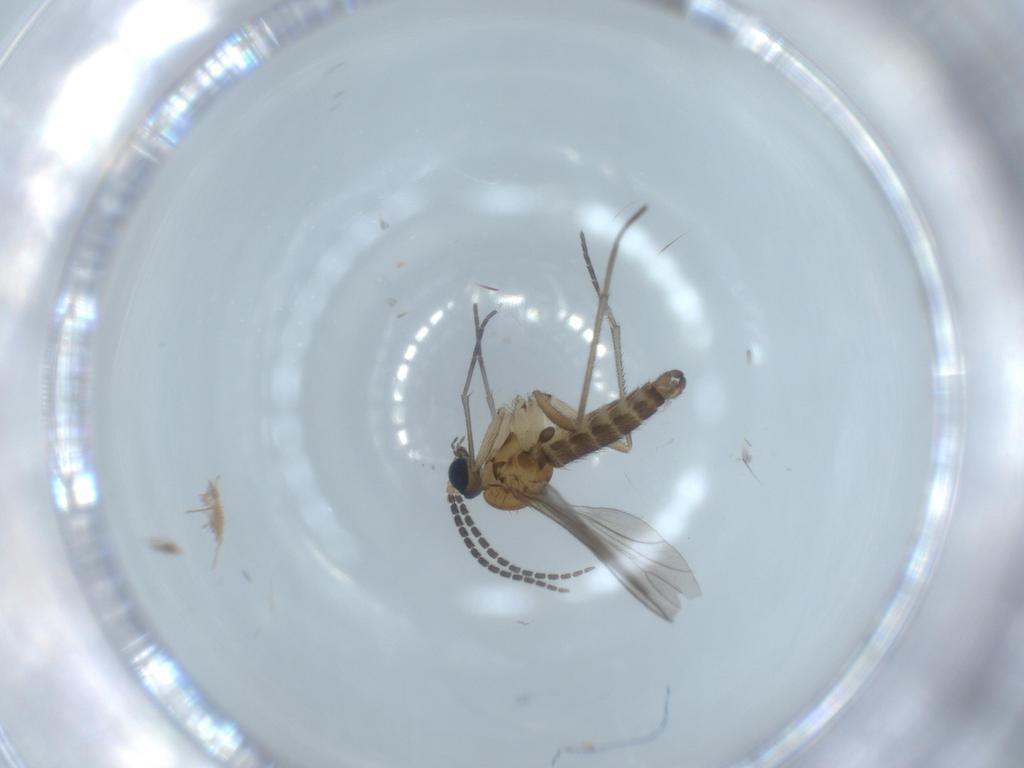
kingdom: Animalia
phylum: Arthropoda
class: Insecta
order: Diptera
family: Sciaridae
